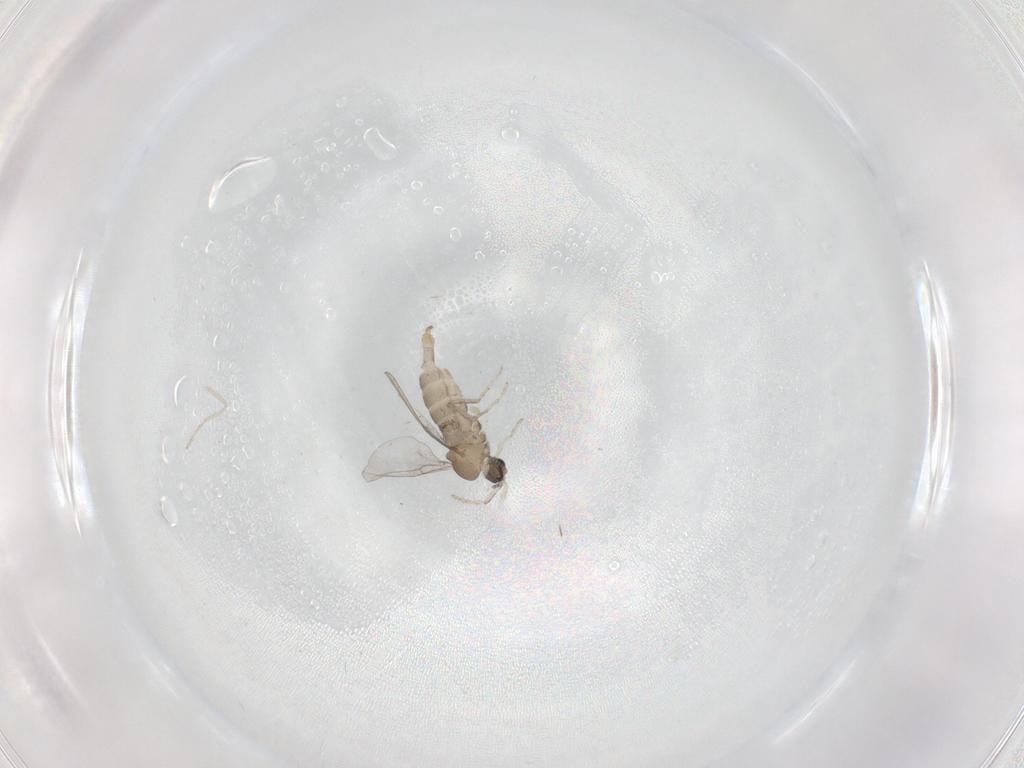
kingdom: Animalia
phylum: Arthropoda
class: Insecta
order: Diptera
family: Cecidomyiidae
